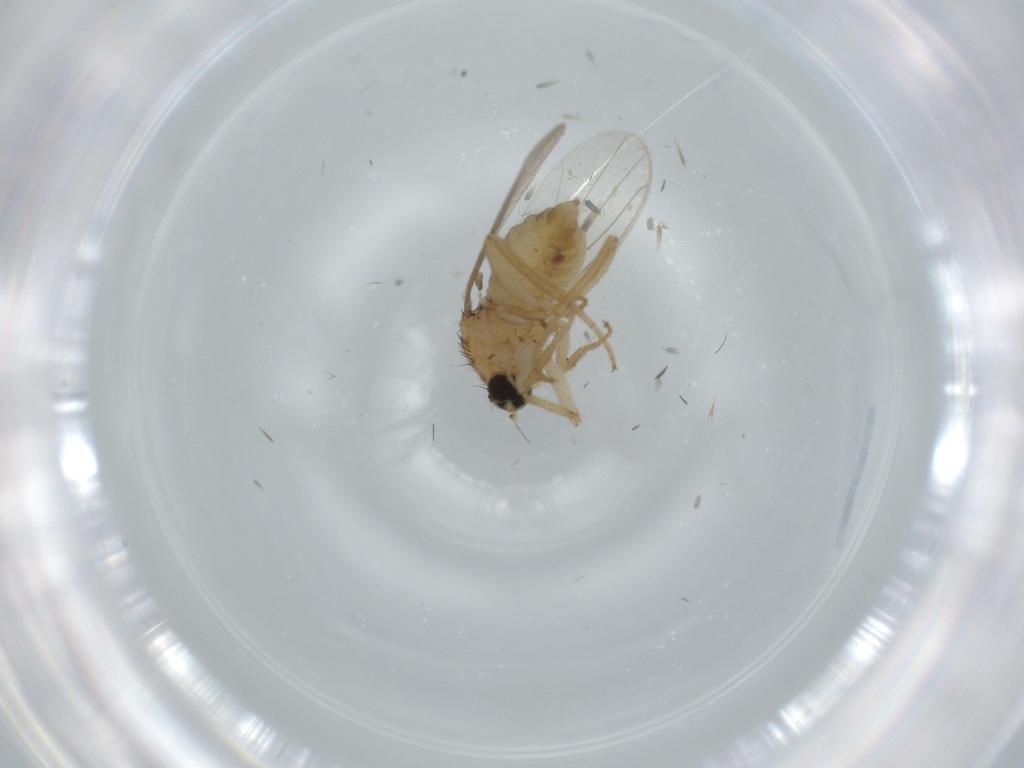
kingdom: Animalia
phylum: Arthropoda
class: Insecta
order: Diptera
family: Hybotidae
